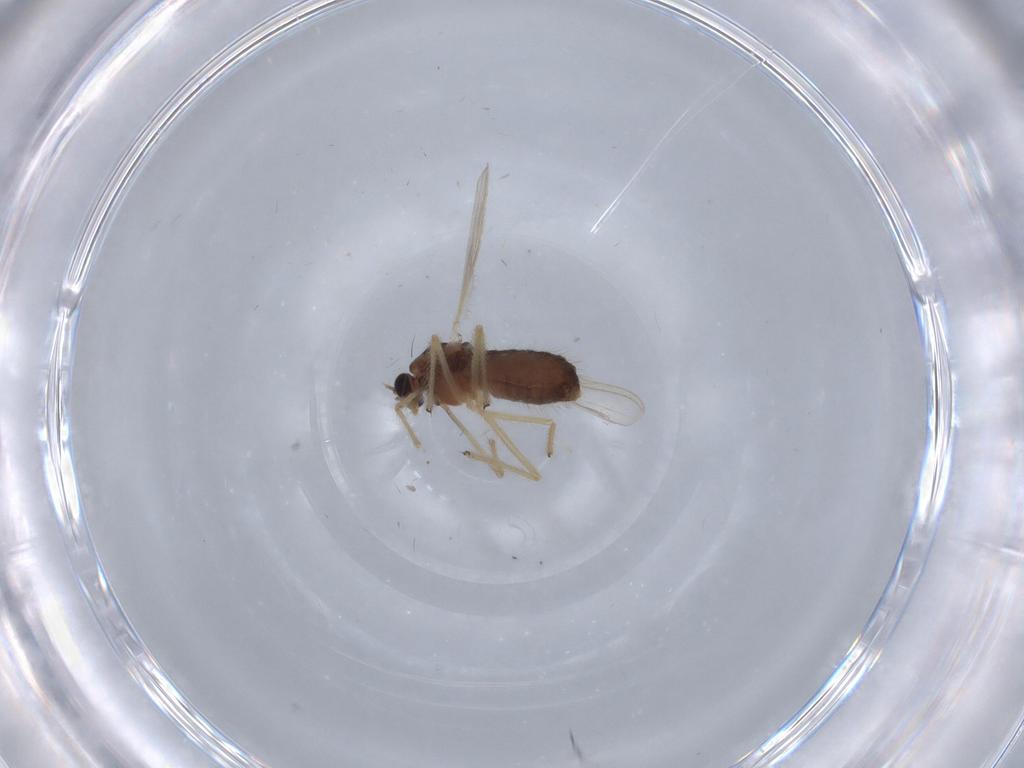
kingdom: Animalia
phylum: Arthropoda
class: Insecta
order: Diptera
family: Chironomidae
